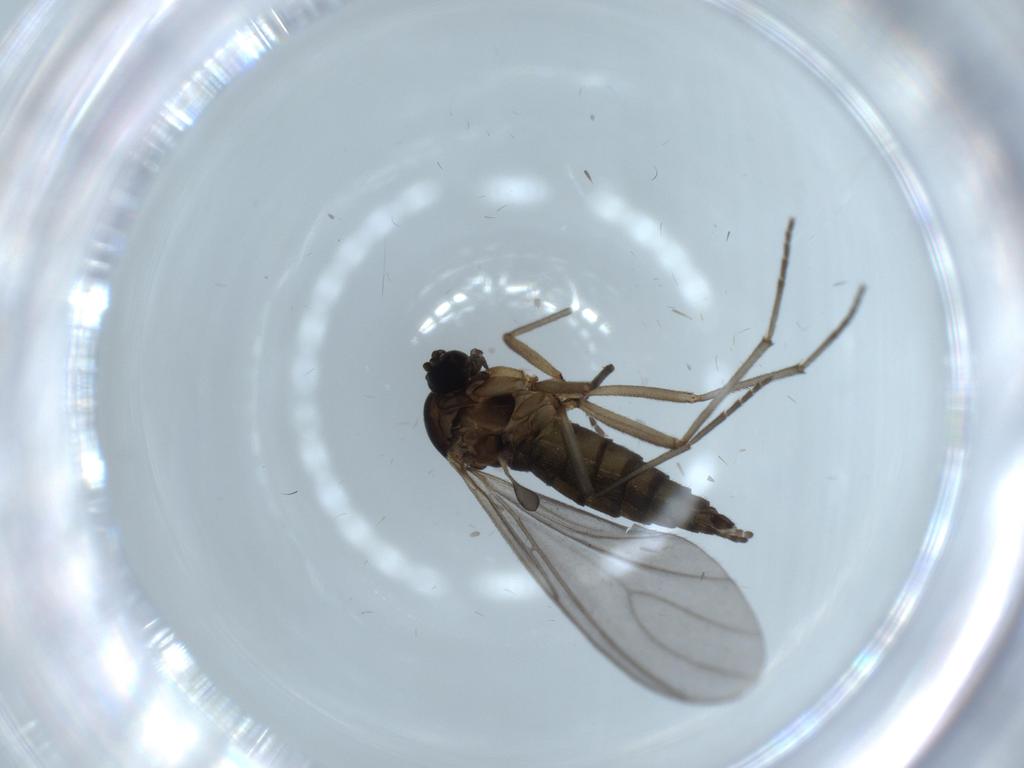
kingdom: Animalia
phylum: Arthropoda
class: Insecta
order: Diptera
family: Sciaridae
